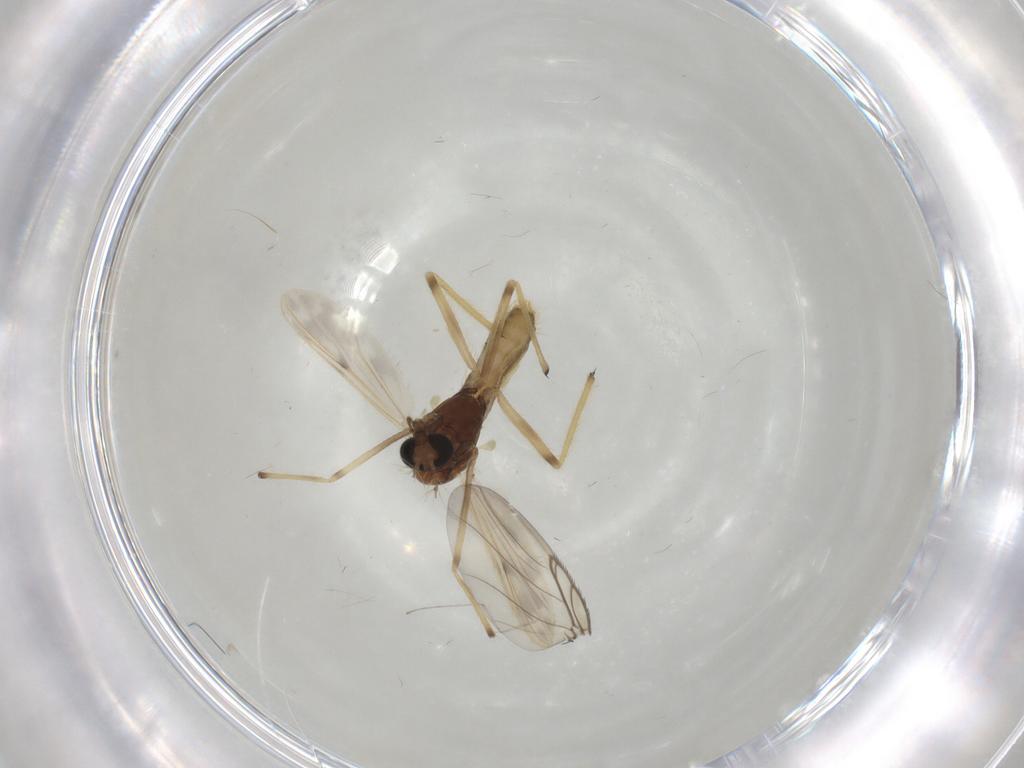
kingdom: Animalia
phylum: Arthropoda
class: Insecta
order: Diptera
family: Chironomidae
